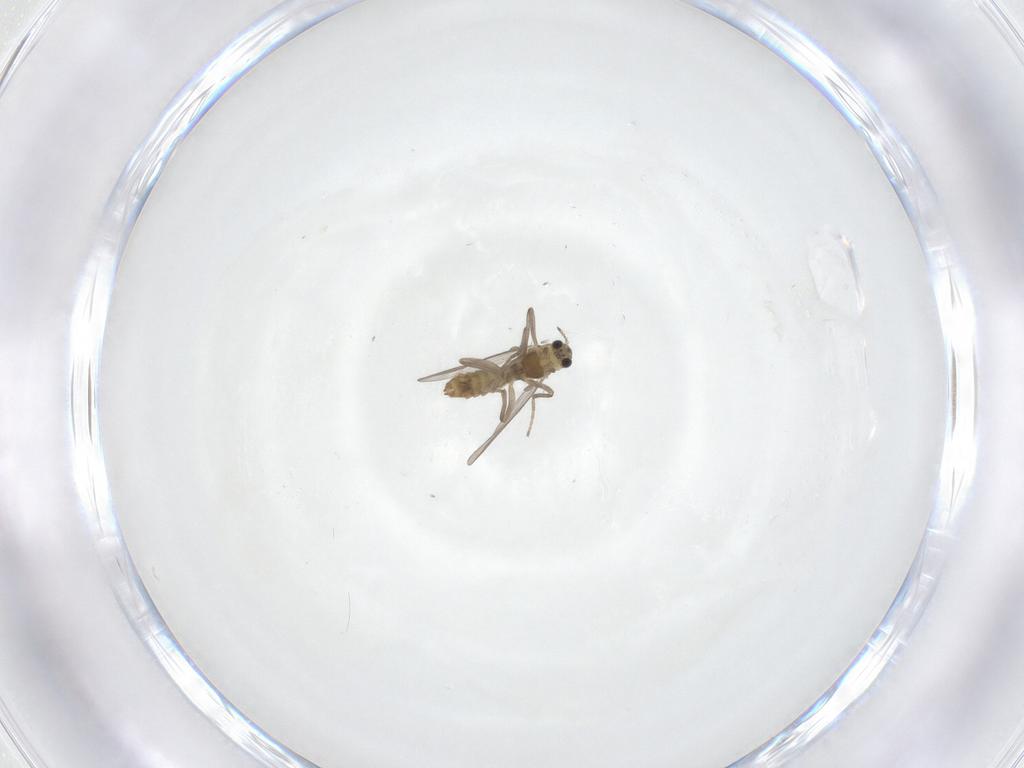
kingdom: Animalia
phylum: Arthropoda
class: Insecta
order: Diptera
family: Chironomidae
